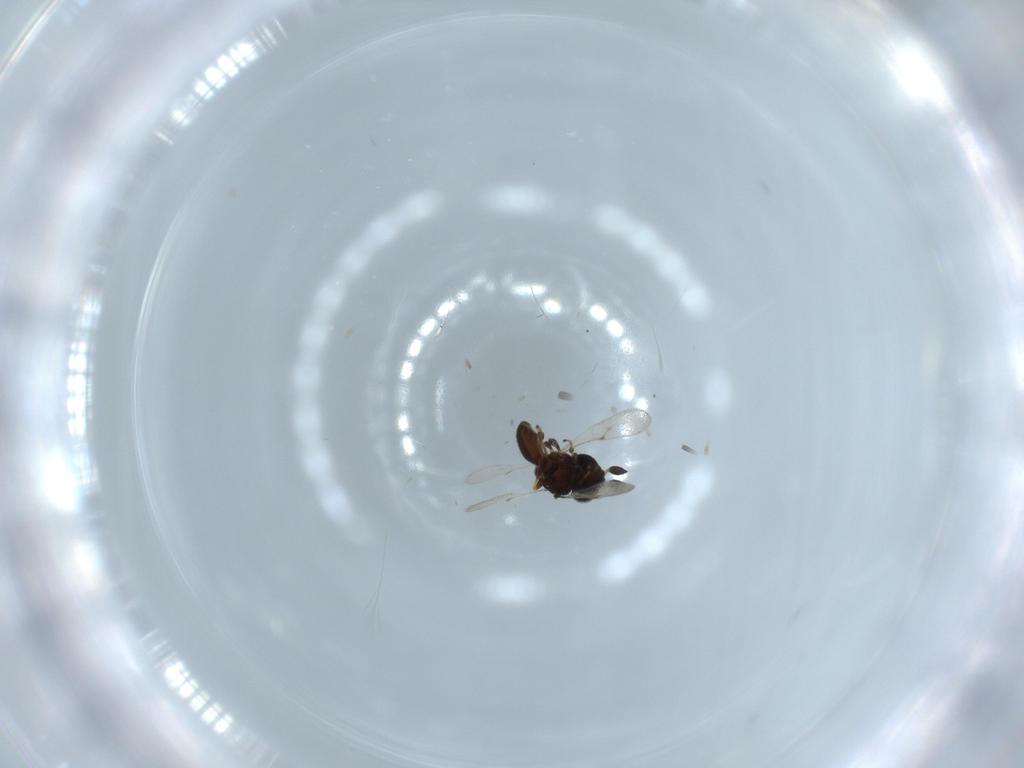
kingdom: Animalia
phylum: Arthropoda
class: Insecta
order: Hymenoptera
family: Scelionidae
